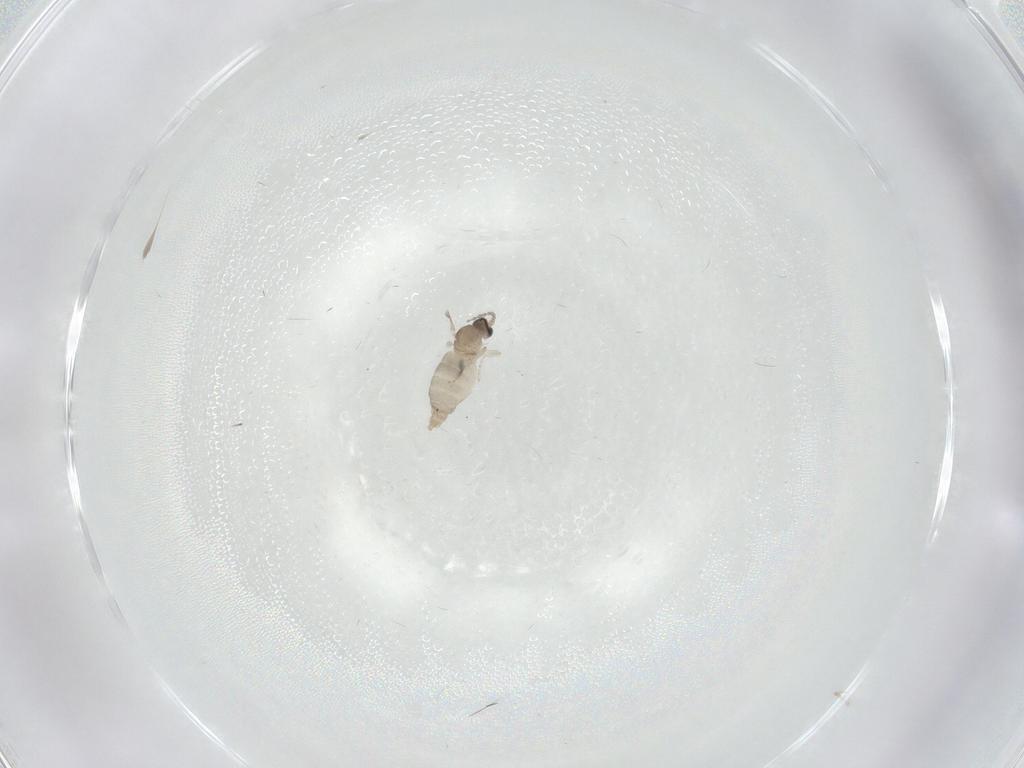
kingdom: Animalia
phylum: Arthropoda
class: Insecta
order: Diptera
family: Cecidomyiidae
